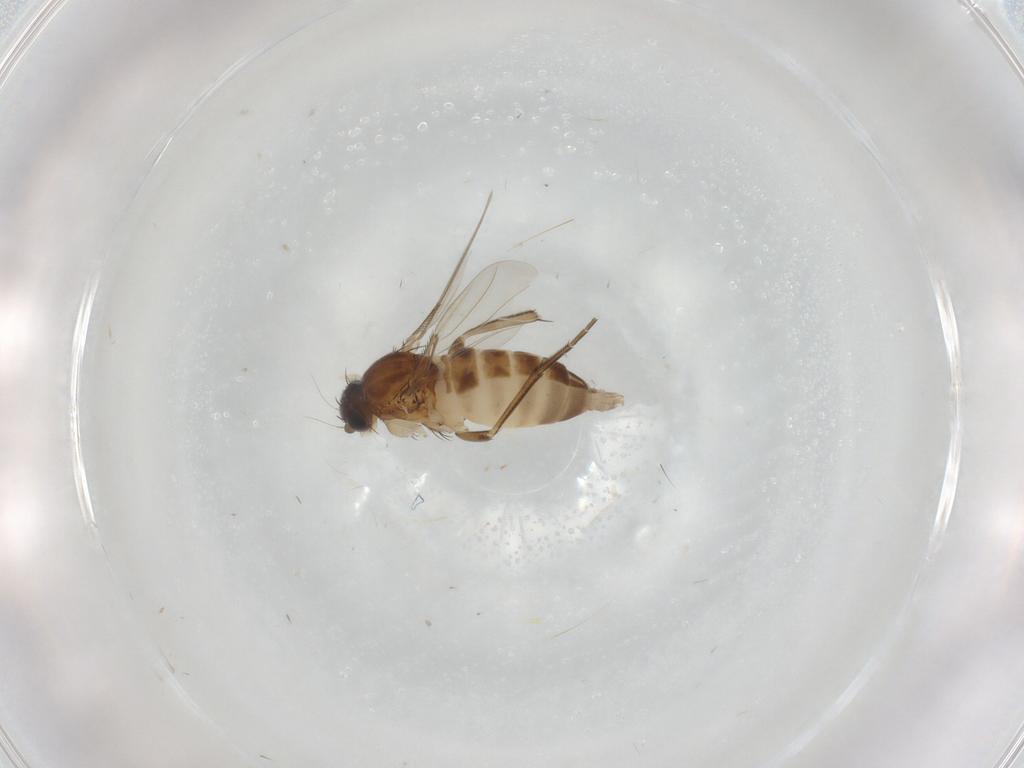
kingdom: Animalia
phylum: Arthropoda
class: Insecta
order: Diptera
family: Phoridae
